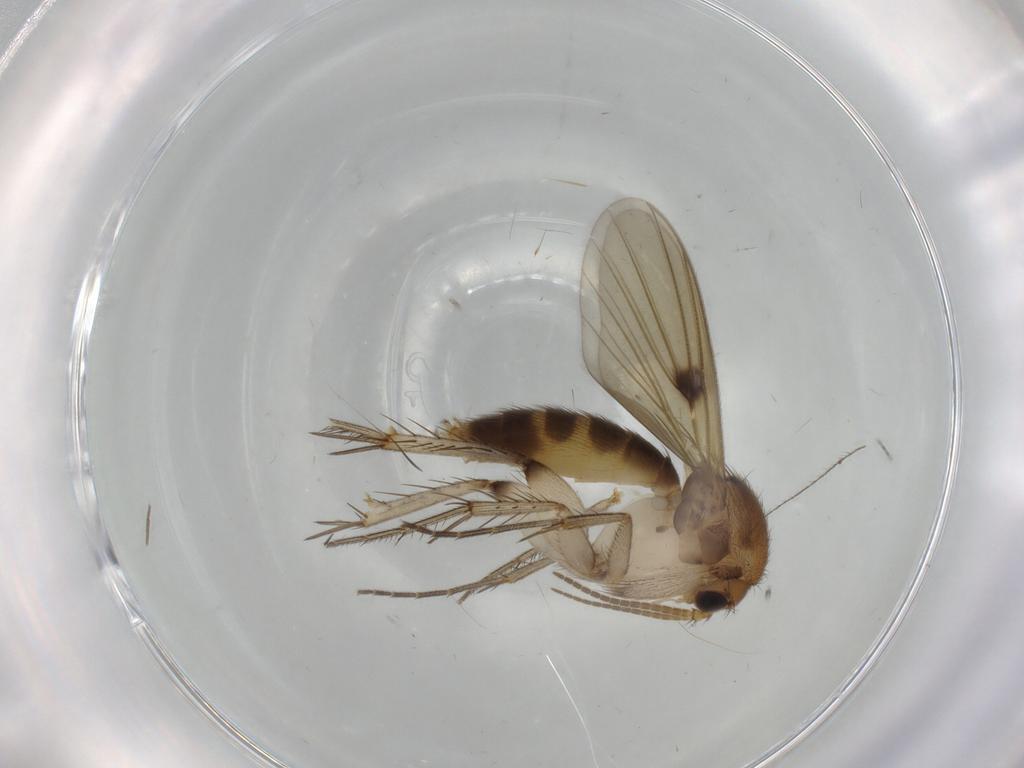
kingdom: Animalia
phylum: Arthropoda
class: Insecta
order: Diptera
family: Mycetophilidae
